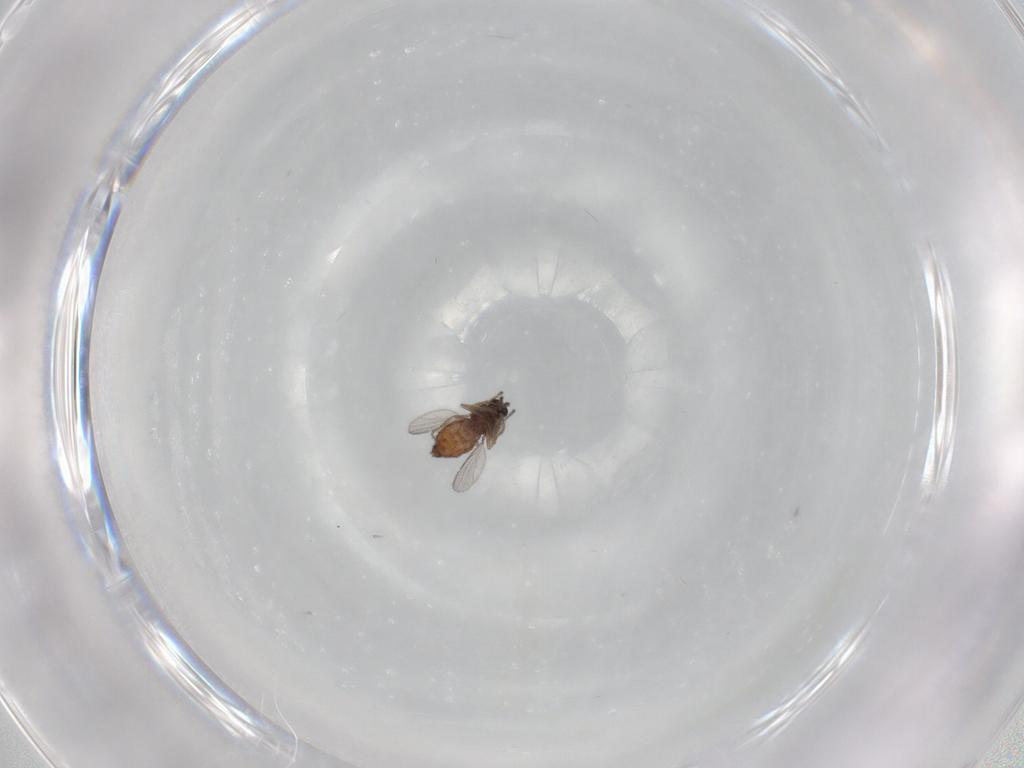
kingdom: Animalia
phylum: Arthropoda
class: Insecta
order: Diptera
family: Ceratopogonidae
